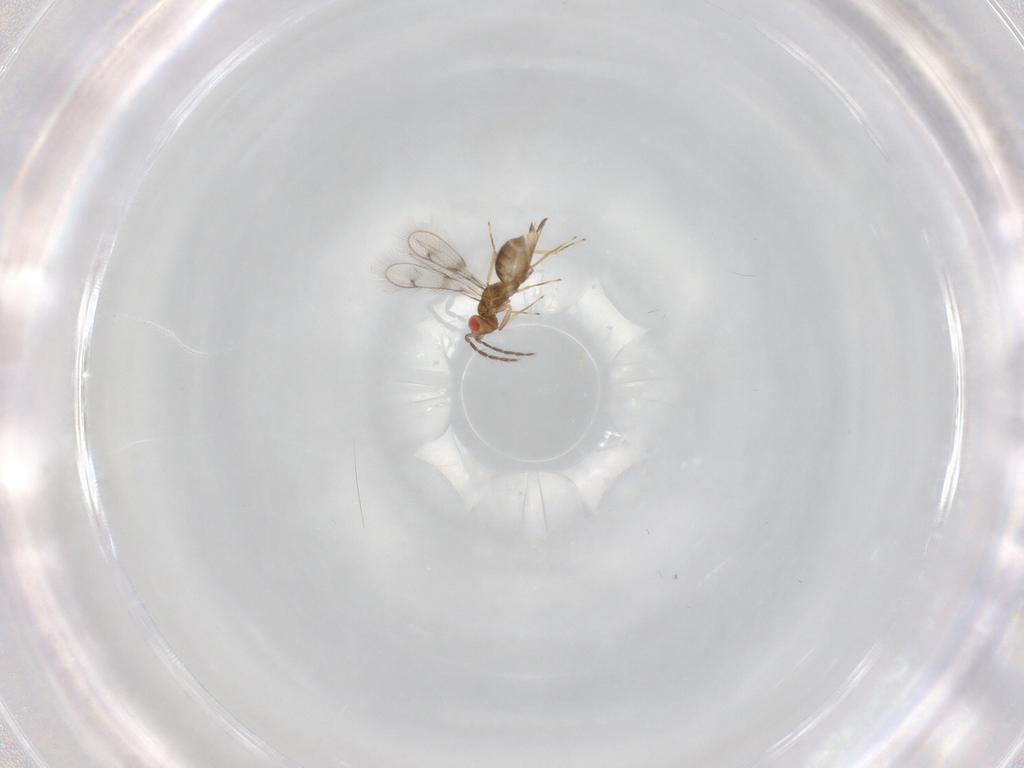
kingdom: Animalia
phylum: Arthropoda
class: Insecta
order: Hymenoptera
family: Eulophidae
